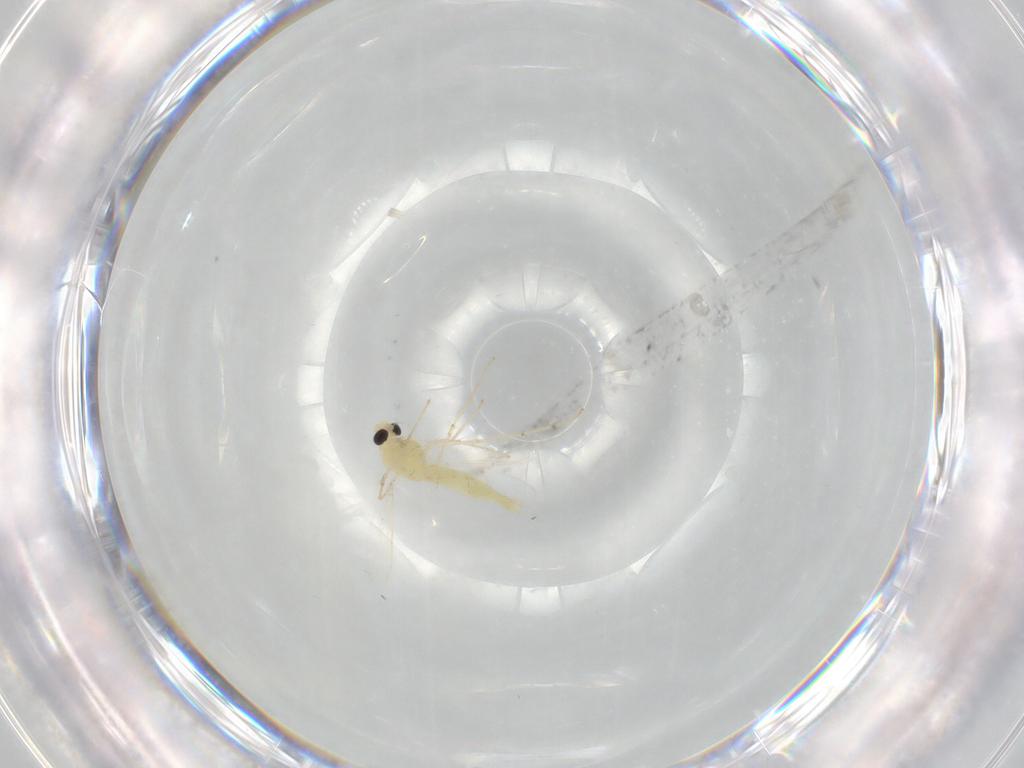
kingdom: Animalia
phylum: Arthropoda
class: Insecta
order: Diptera
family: Chironomidae
